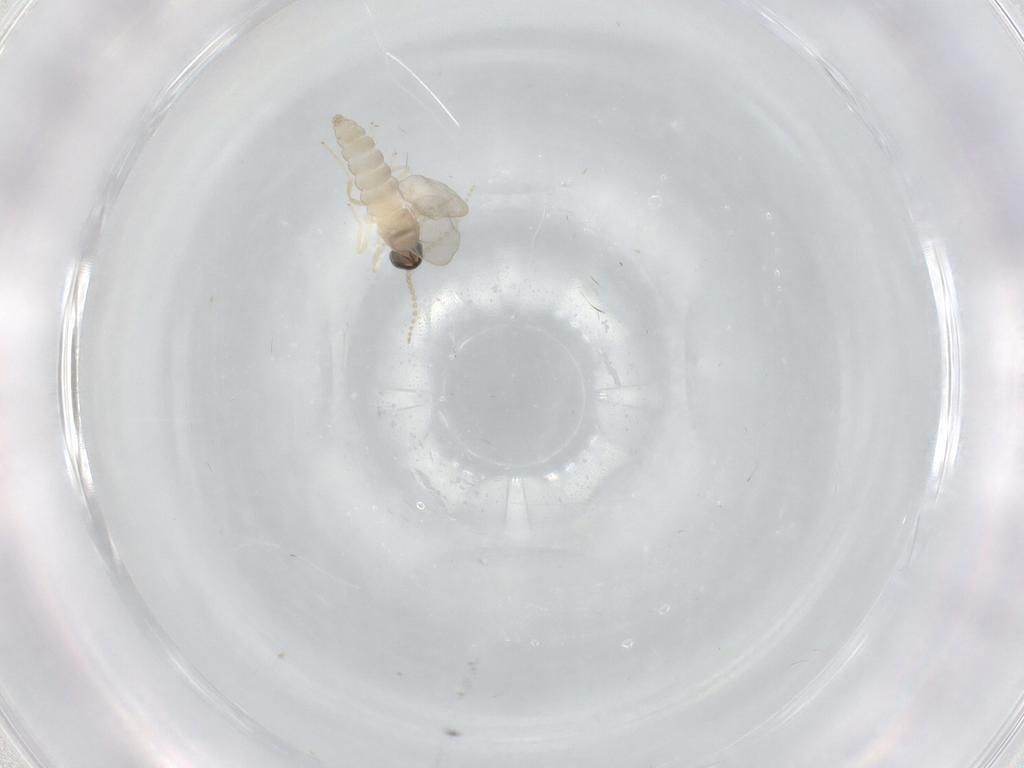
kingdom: Animalia
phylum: Arthropoda
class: Insecta
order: Diptera
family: Cecidomyiidae
